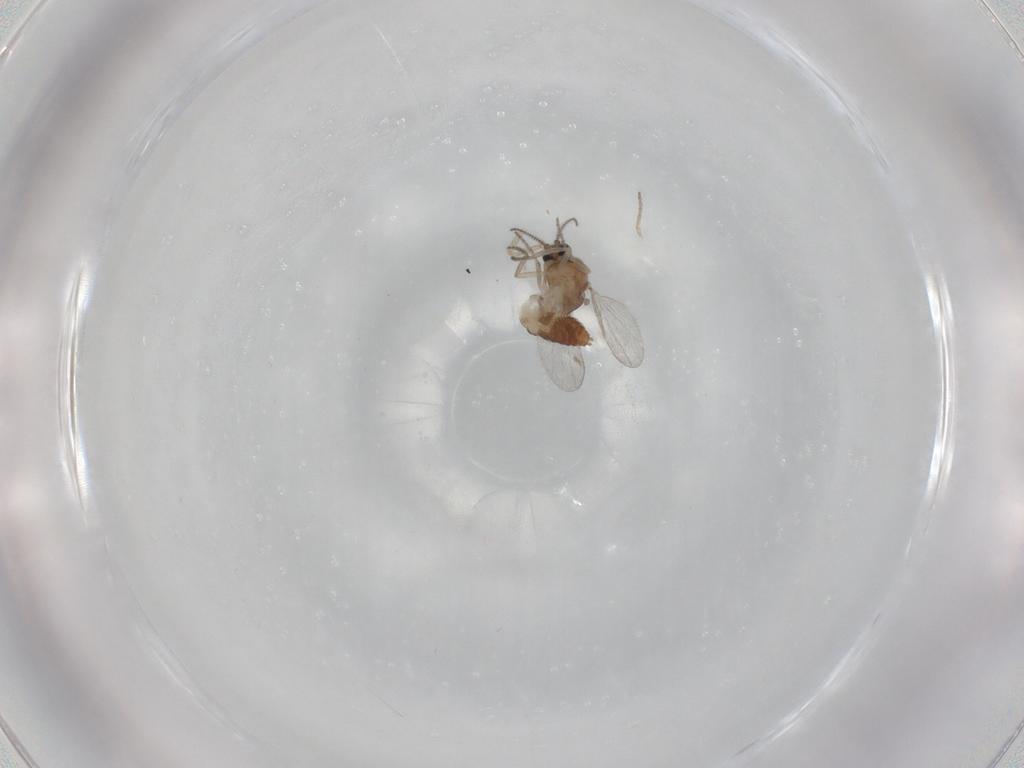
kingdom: Animalia
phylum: Arthropoda
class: Insecta
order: Diptera
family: Ceratopogonidae
